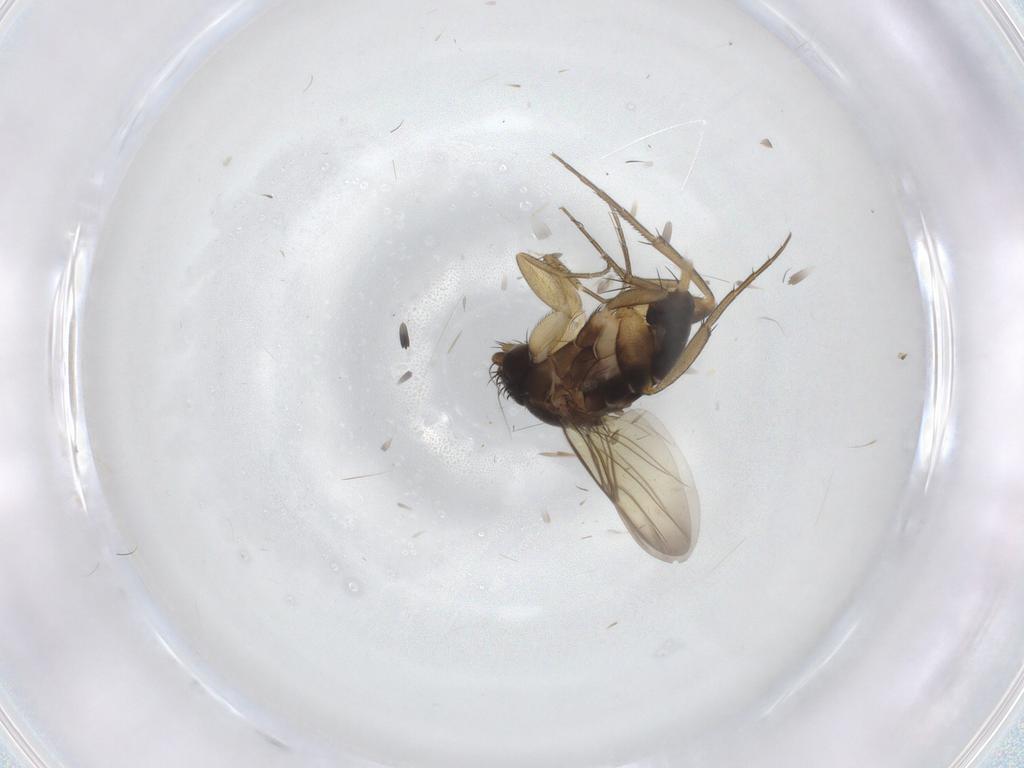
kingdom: Animalia
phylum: Arthropoda
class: Insecta
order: Diptera
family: Phoridae
